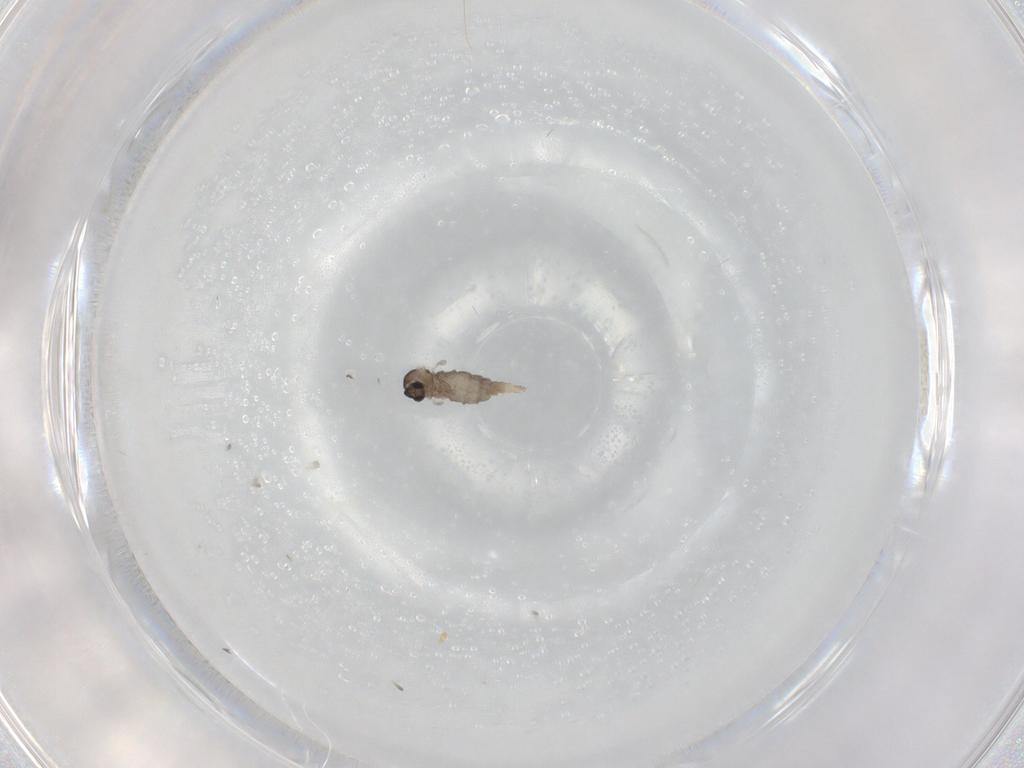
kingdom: Animalia
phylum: Arthropoda
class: Insecta
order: Diptera
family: Cecidomyiidae
